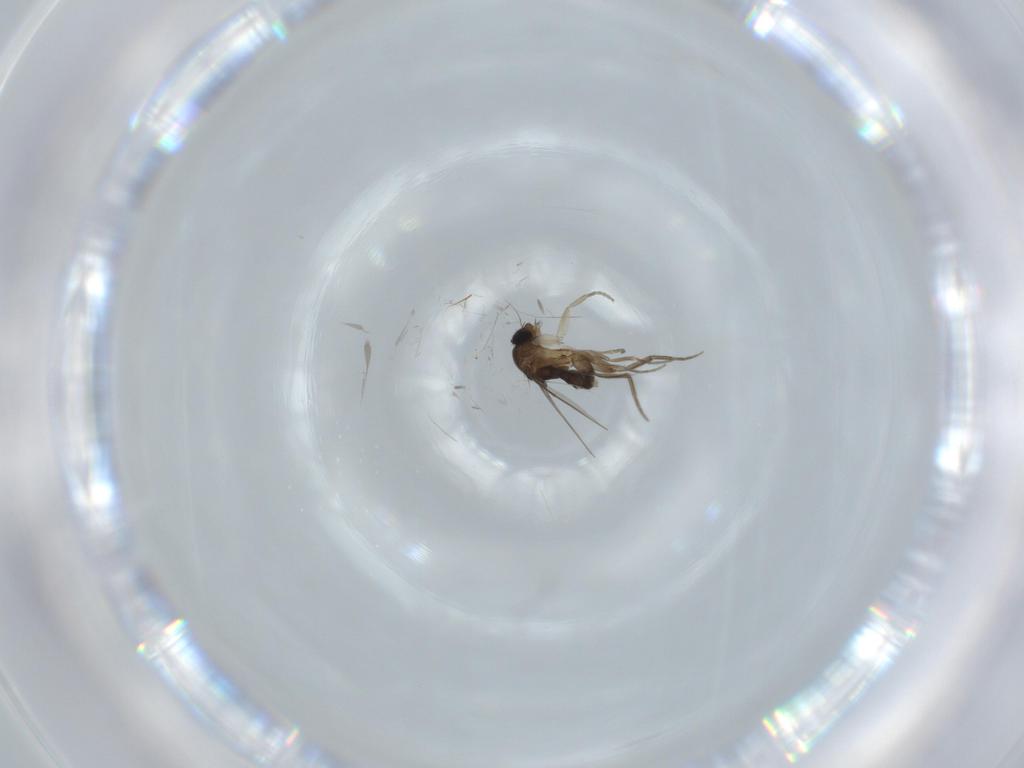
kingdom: Animalia
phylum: Arthropoda
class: Insecta
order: Diptera
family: Phoridae
